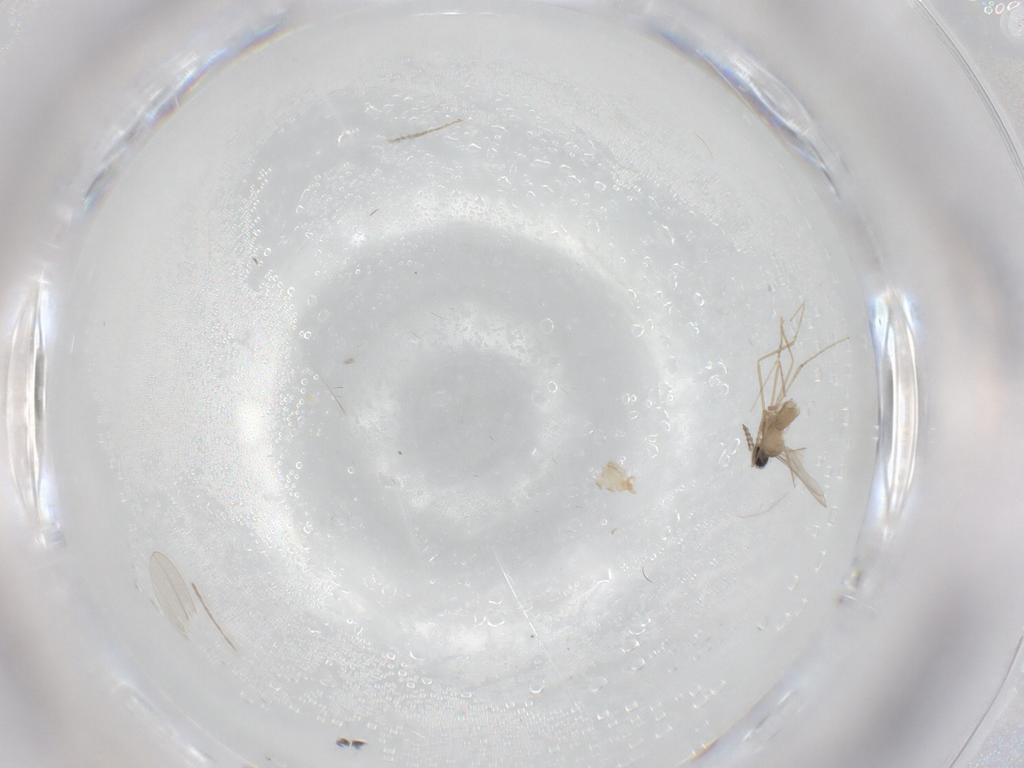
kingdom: Animalia
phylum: Arthropoda
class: Insecta
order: Diptera
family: Cecidomyiidae
